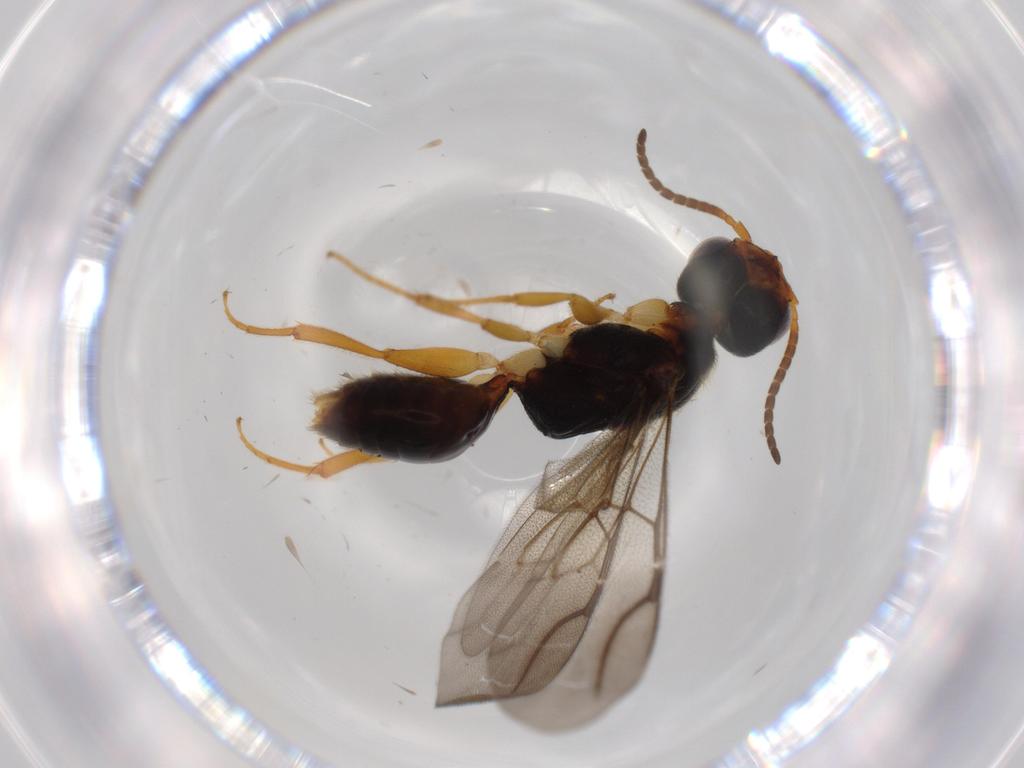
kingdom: Animalia
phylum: Arthropoda
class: Insecta
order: Hymenoptera
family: Bethylidae
